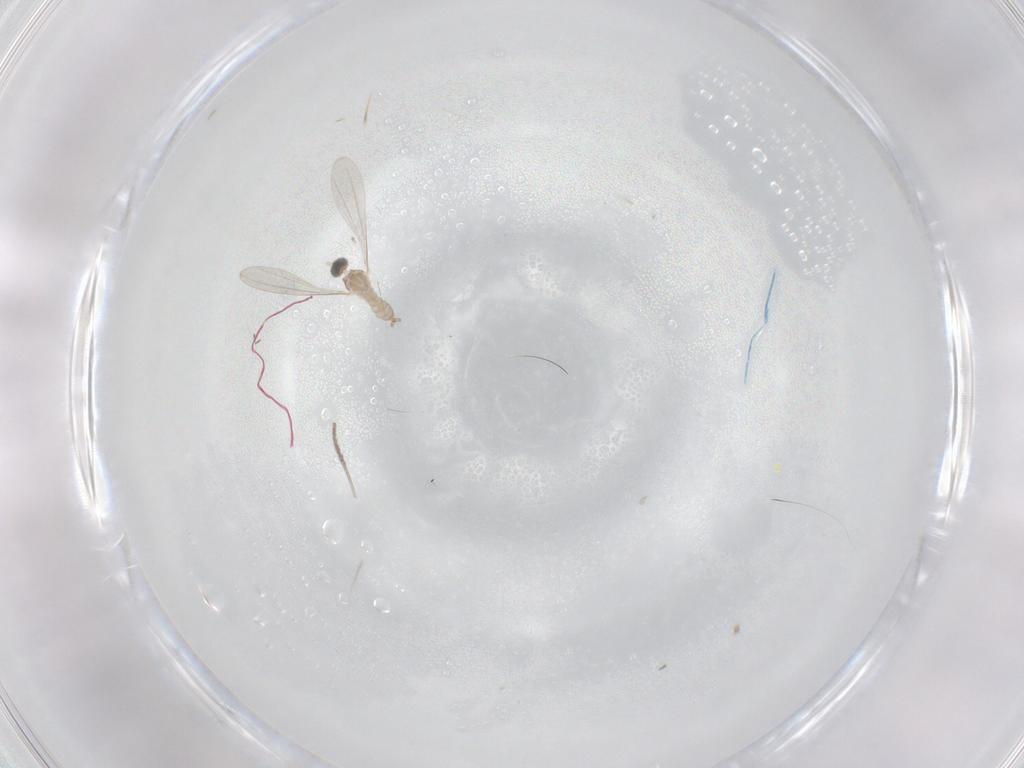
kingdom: Animalia
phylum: Arthropoda
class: Insecta
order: Diptera
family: Psychodidae
